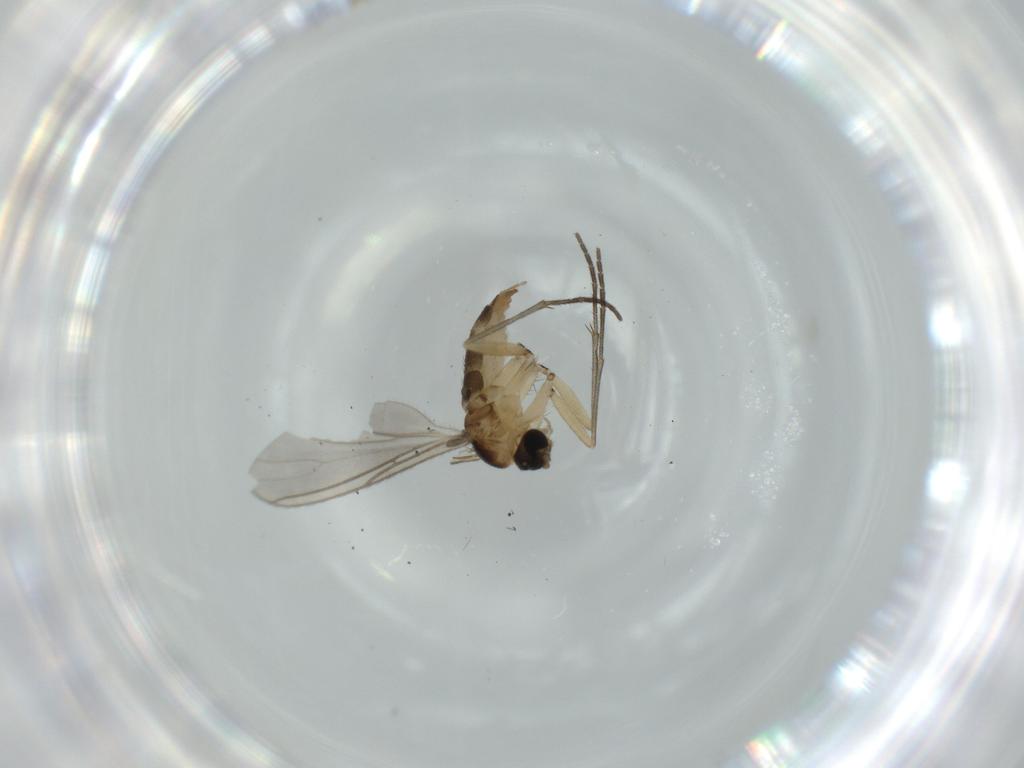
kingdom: Animalia
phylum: Arthropoda
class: Insecta
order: Diptera
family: Sciaridae
